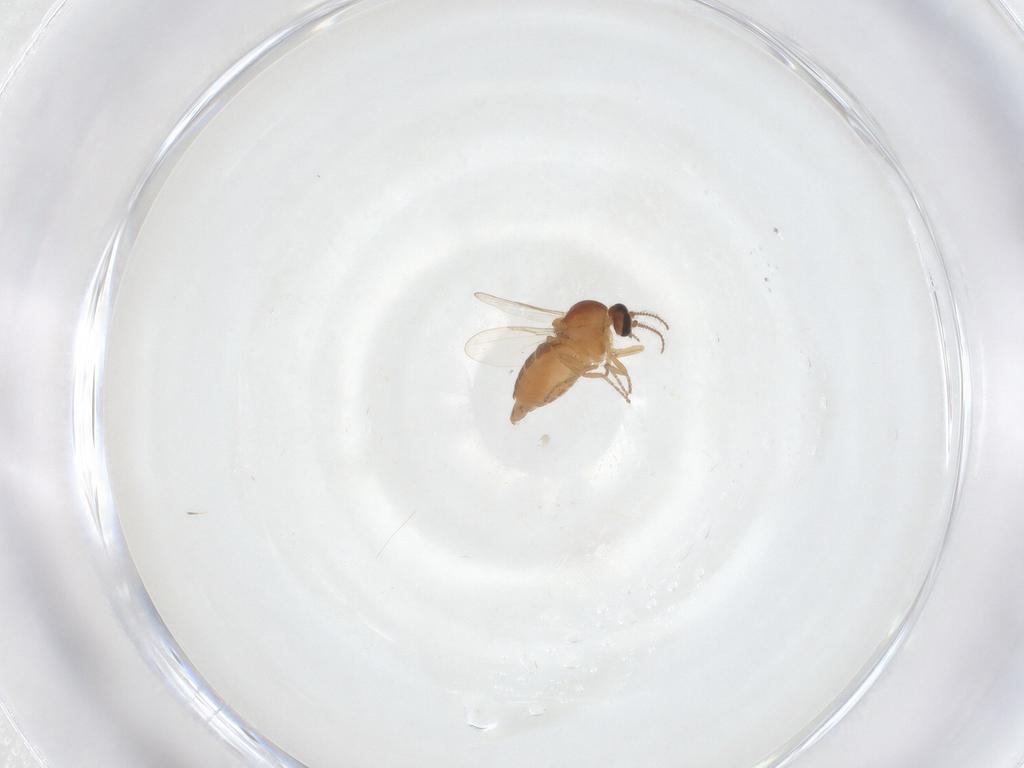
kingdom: Animalia
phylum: Arthropoda
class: Insecta
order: Diptera
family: Ceratopogonidae
